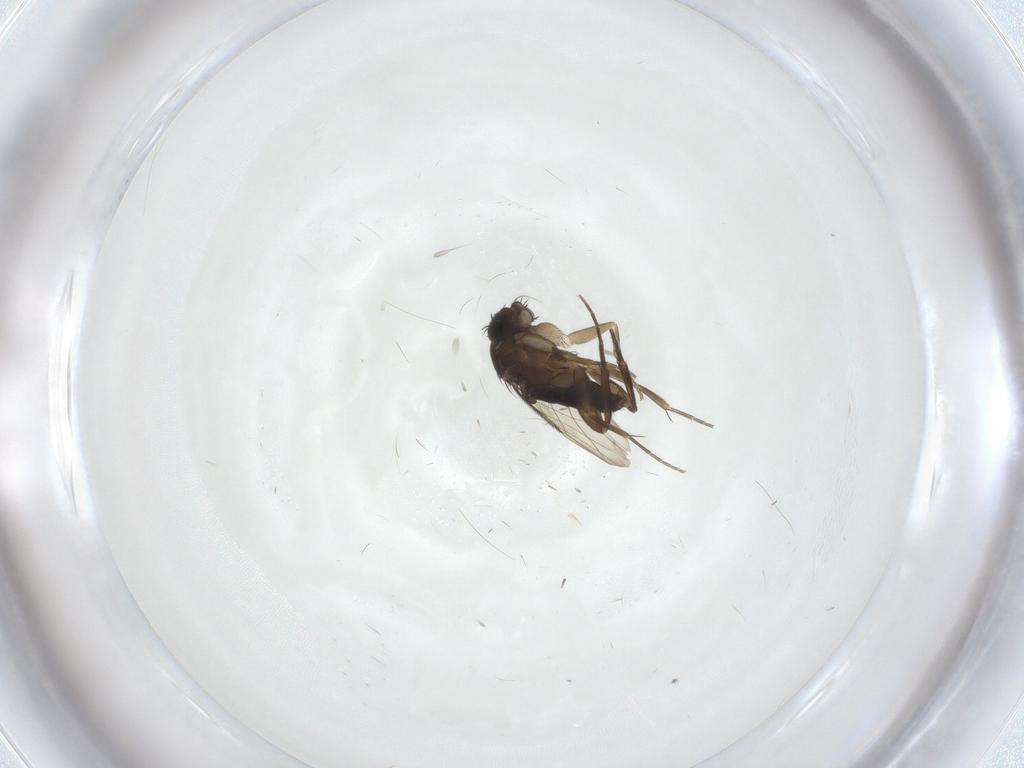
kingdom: Animalia
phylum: Arthropoda
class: Insecta
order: Diptera
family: Phoridae
